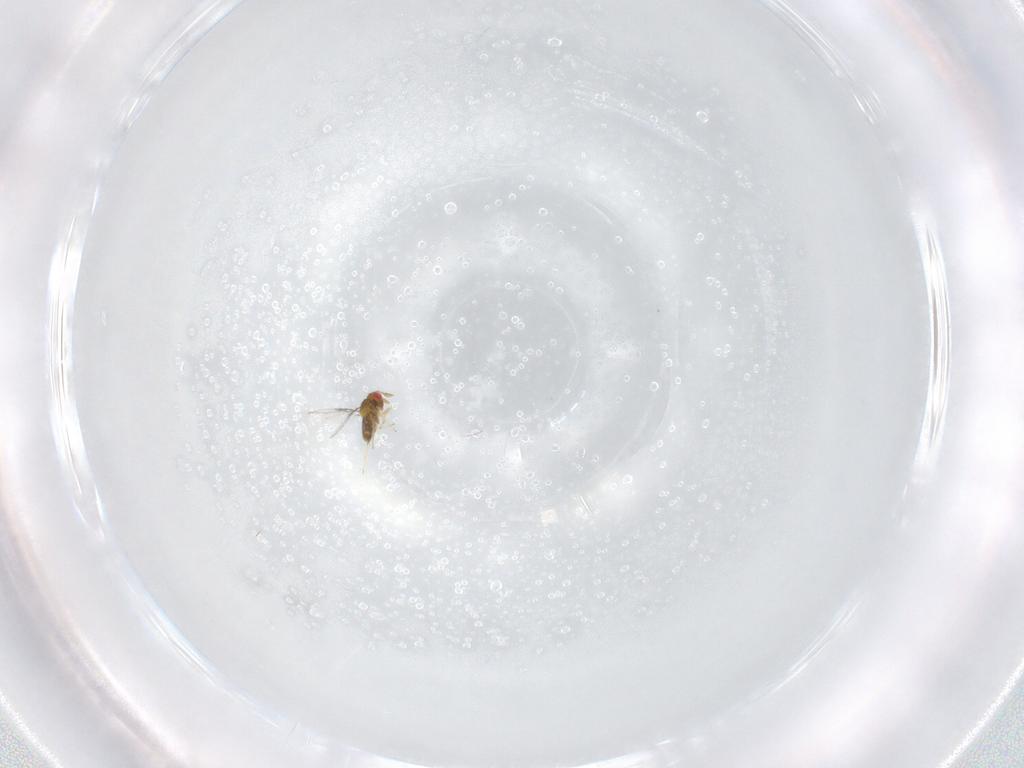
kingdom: Animalia
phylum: Arthropoda
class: Insecta
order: Hymenoptera
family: Trichogrammatidae
